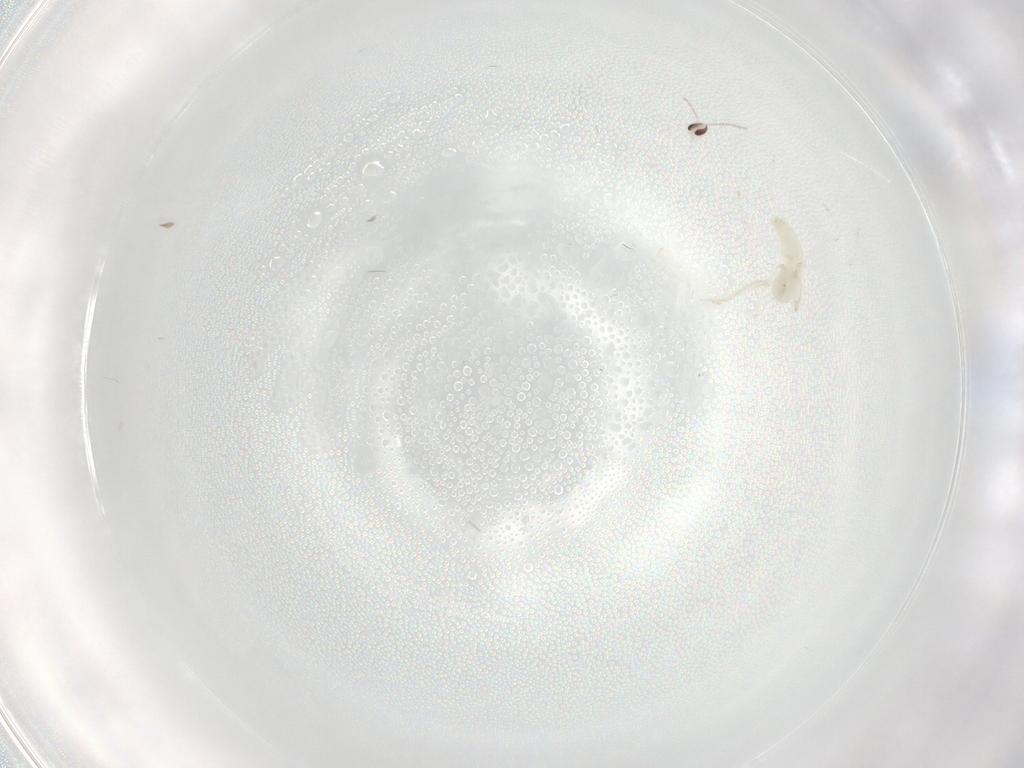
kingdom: Animalia
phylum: Arthropoda
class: Insecta
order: Diptera
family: Cecidomyiidae
